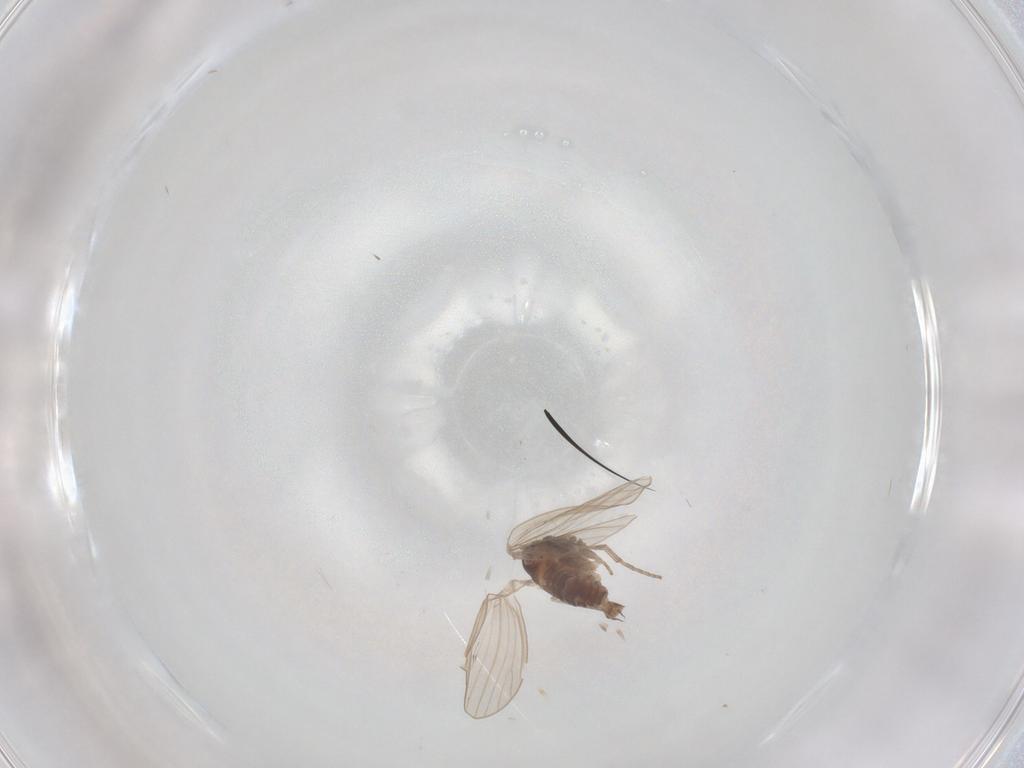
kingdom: Animalia
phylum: Arthropoda
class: Insecta
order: Diptera
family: Psychodidae
